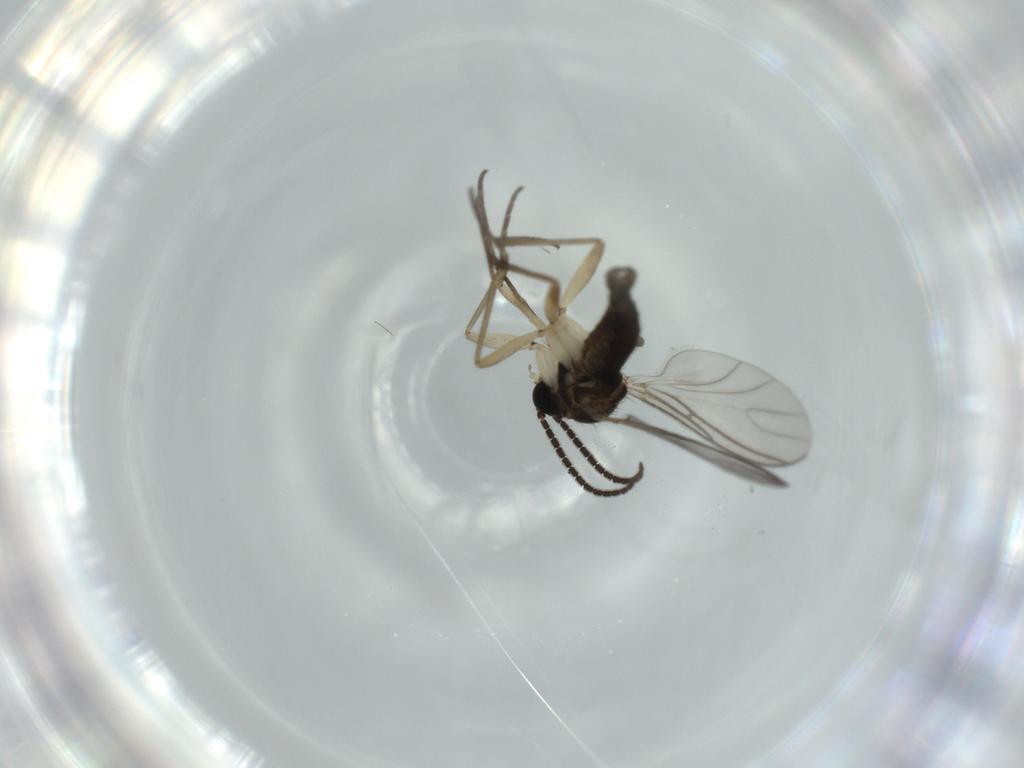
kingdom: Animalia
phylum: Arthropoda
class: Insecta
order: Diptera
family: Sciaridae
